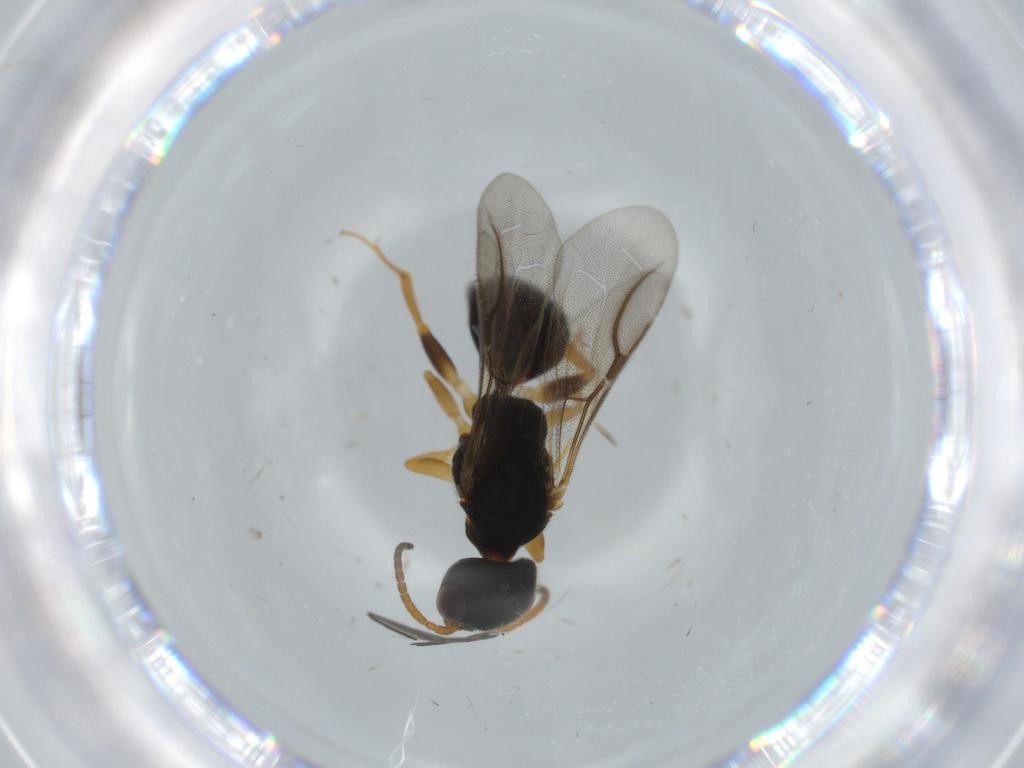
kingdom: Animalia
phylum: Arthropoda
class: Insecta
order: Hymenoptera
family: Bethylidae
